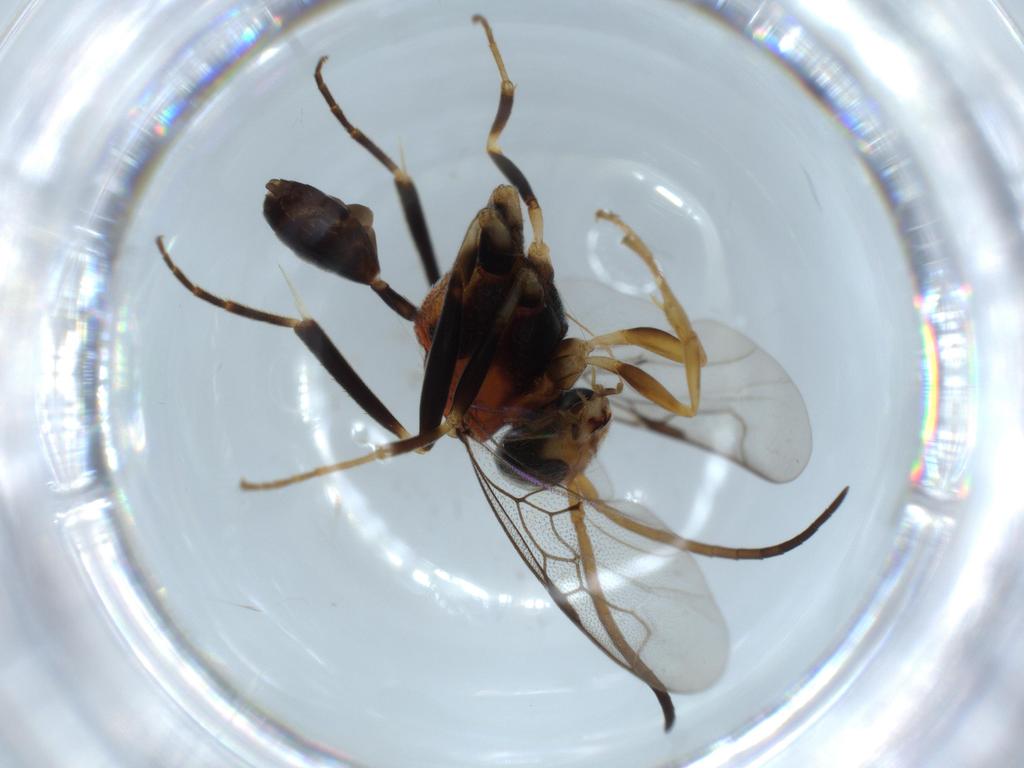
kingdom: Animalia
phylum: Arthropoda
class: Insecta
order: Hymenoptera
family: Evaniidae
